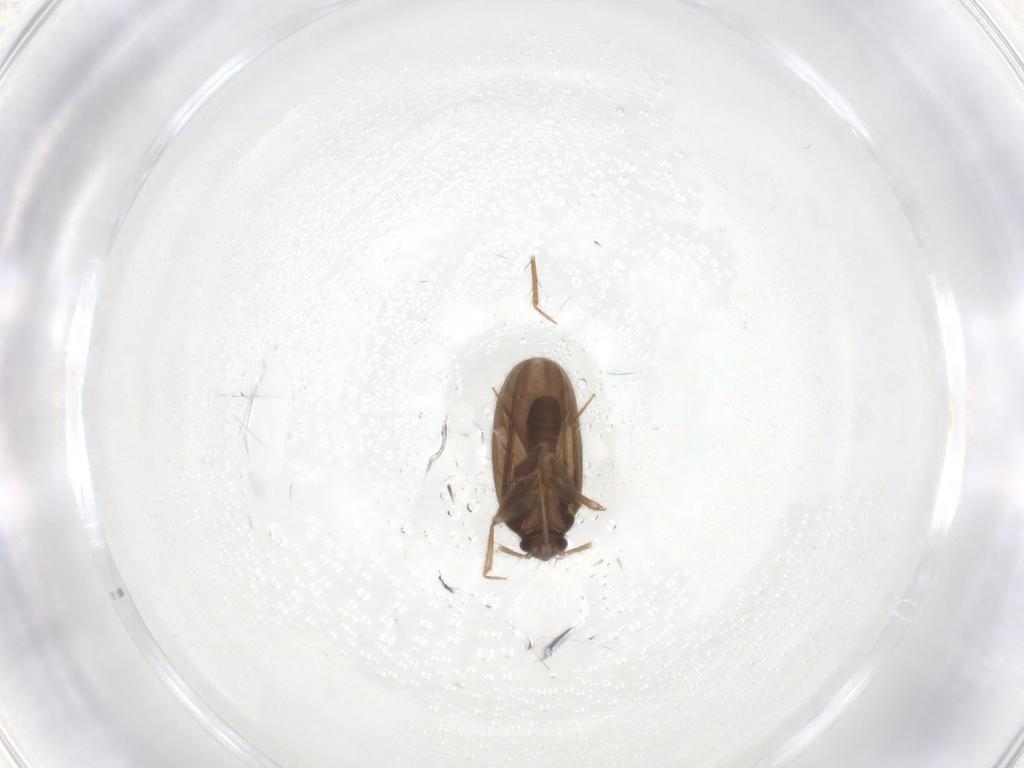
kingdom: Animalia
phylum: Arthropoda
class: Insecta
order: Hemiptera
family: Ceratocombidae
